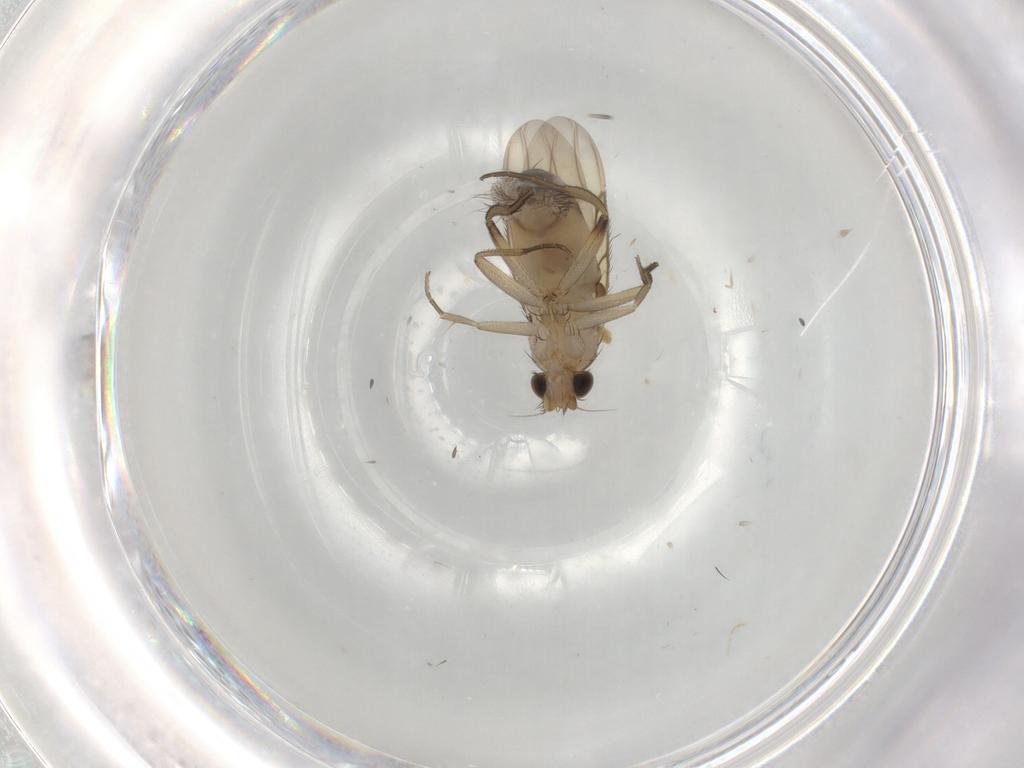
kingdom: Animalia
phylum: Arthropoda
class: Insecta
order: Diptera
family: Phoridae
